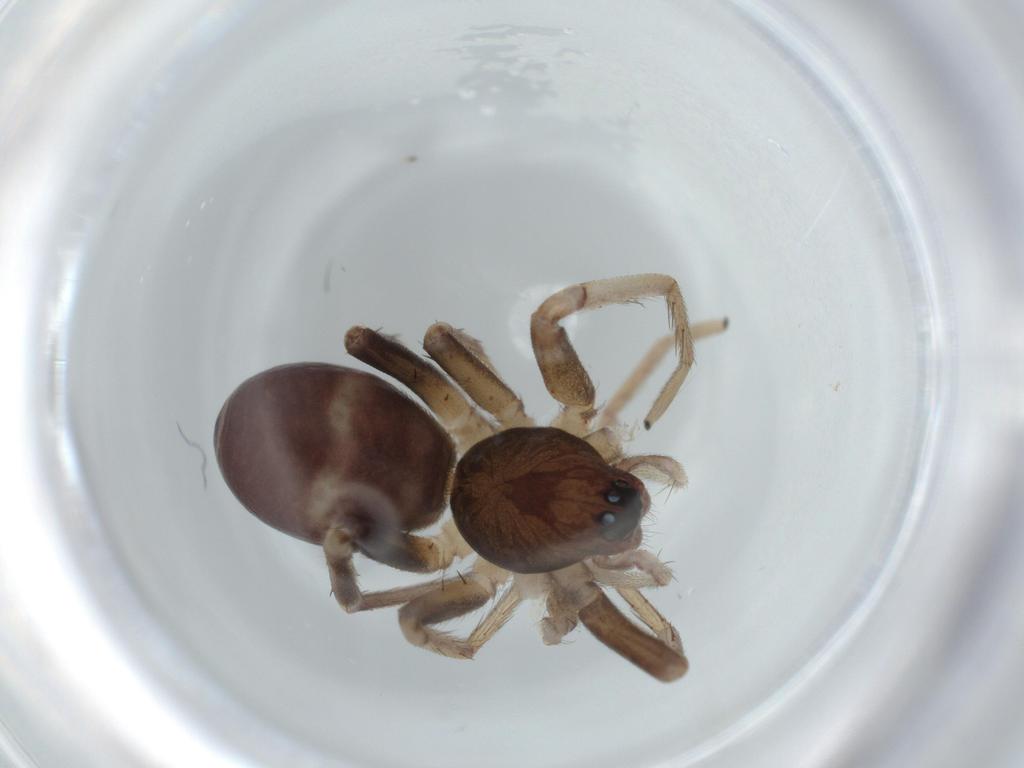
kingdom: Animalia
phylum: Arthropoda
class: Arachnida
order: Araneae
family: Corinnidae
